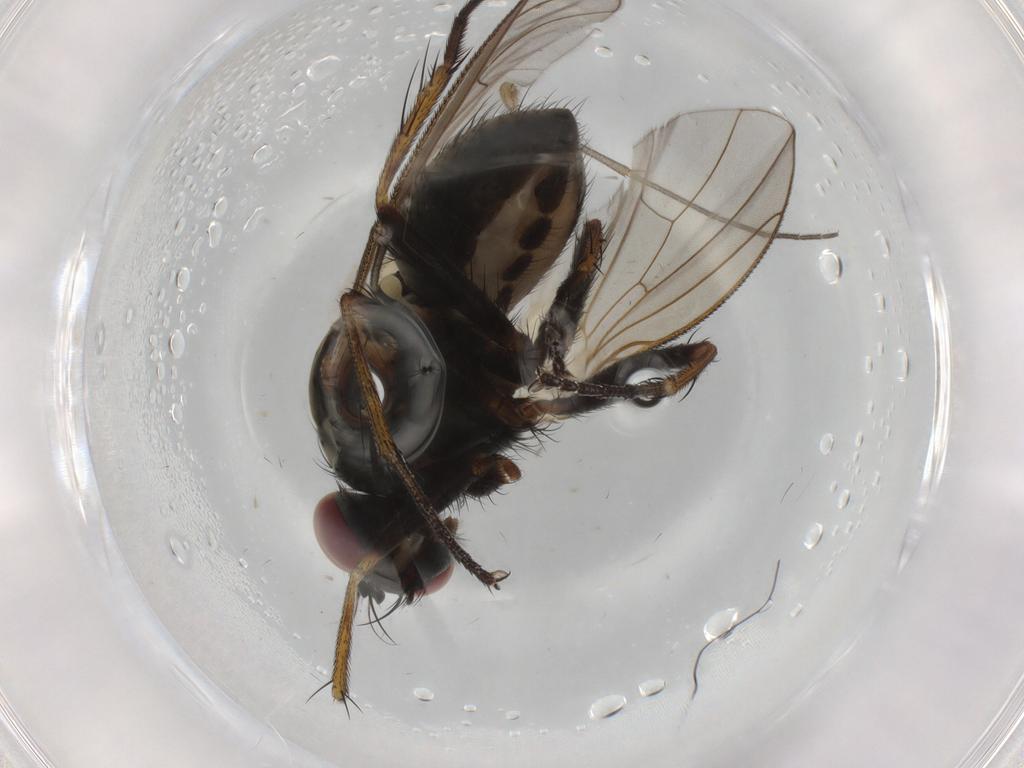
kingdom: Animalia
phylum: Arthropoda
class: Insecta
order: Diptera
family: Mycetophilidae
